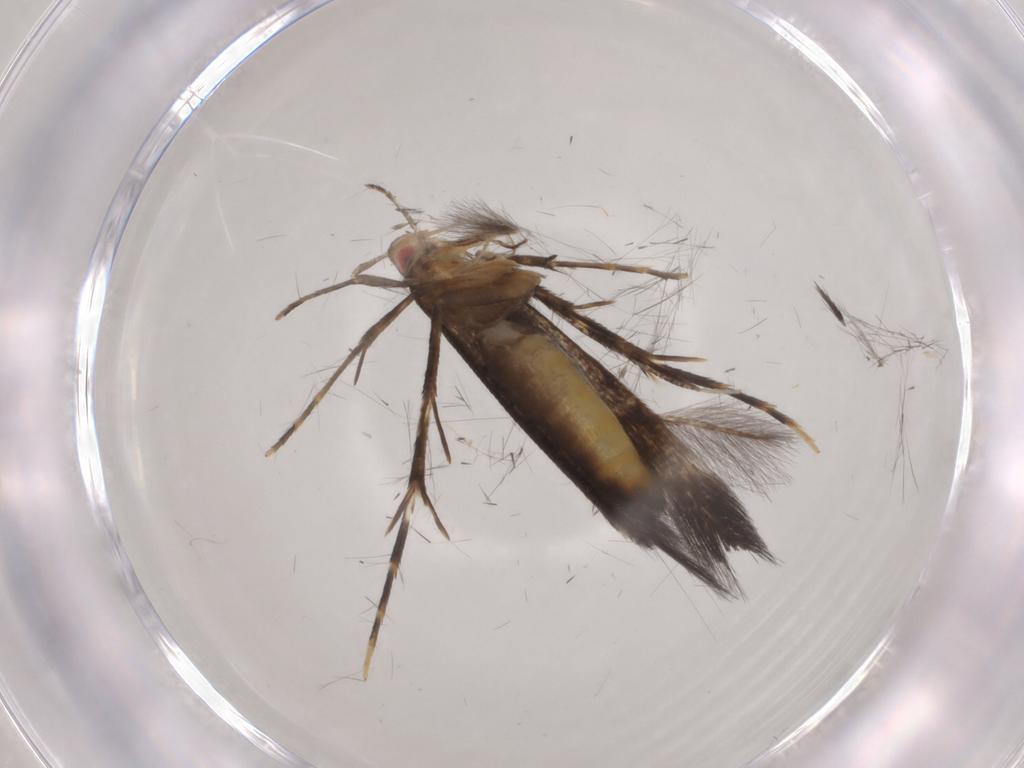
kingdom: Animalia
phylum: Arthropoda
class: Insecta
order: Lepidoptera
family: Cosmopterigidae
